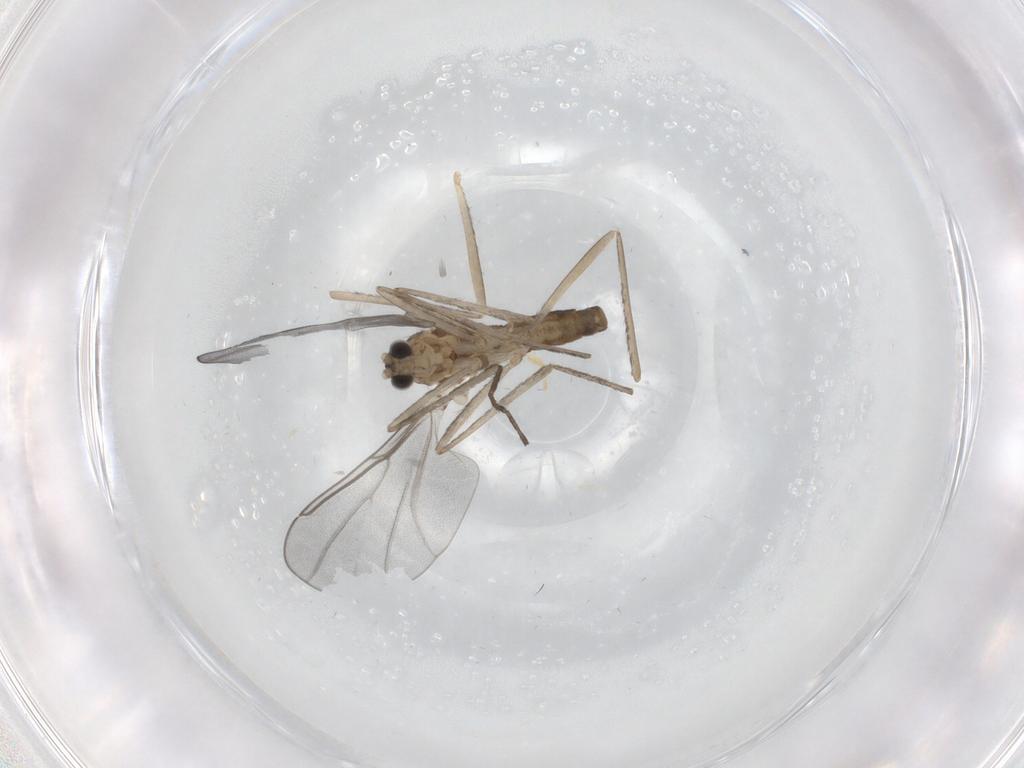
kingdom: Animalia
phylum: Arthropoda
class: Insecta
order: Diptera
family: Cecidomyiidae
